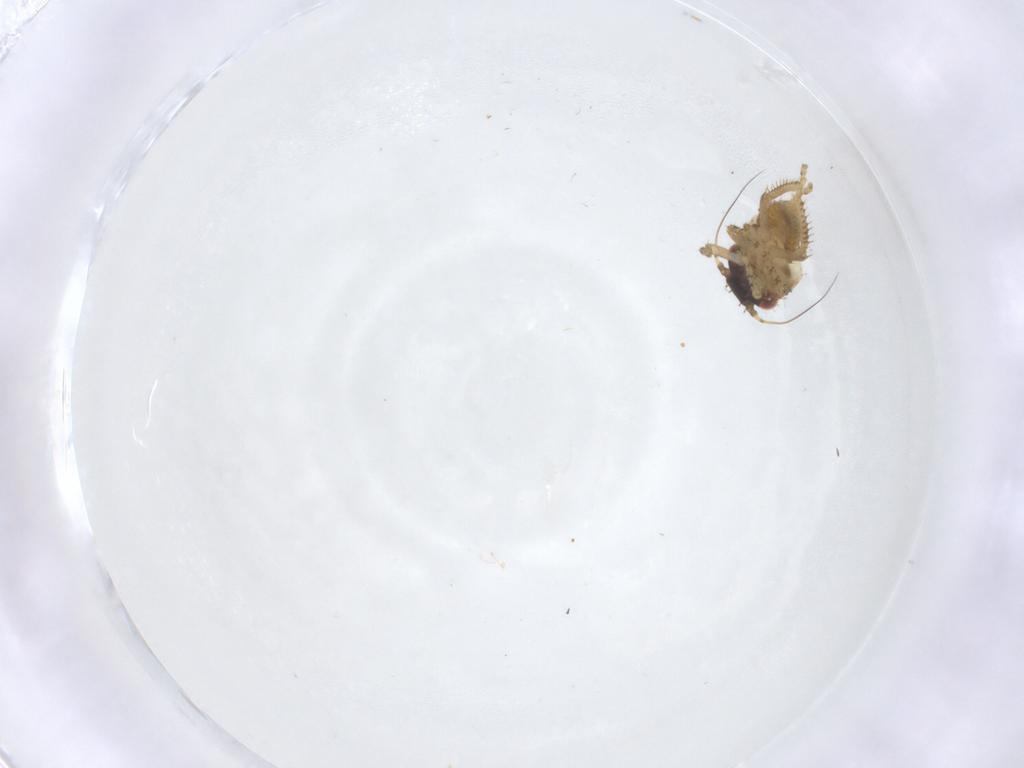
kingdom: Animalia
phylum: Arthropoda
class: Insecta
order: Hemiptera
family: Cicadellidae
